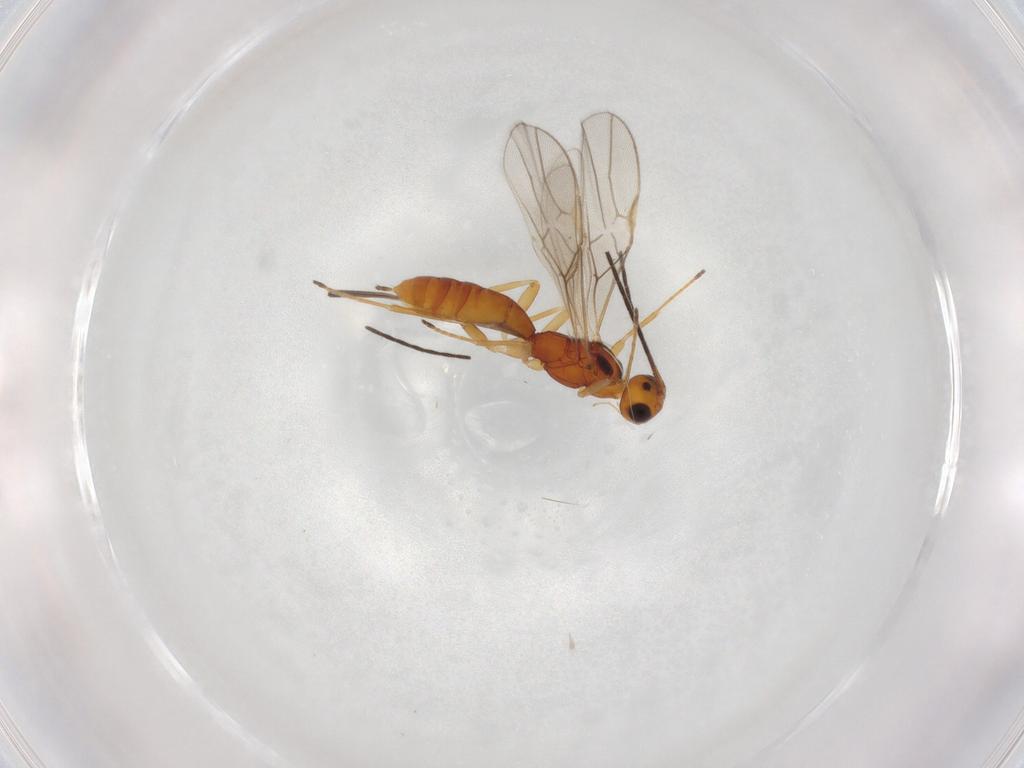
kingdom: Animalia
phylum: Arthropoda
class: Insecta
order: Hymenoptera
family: Braconidae
